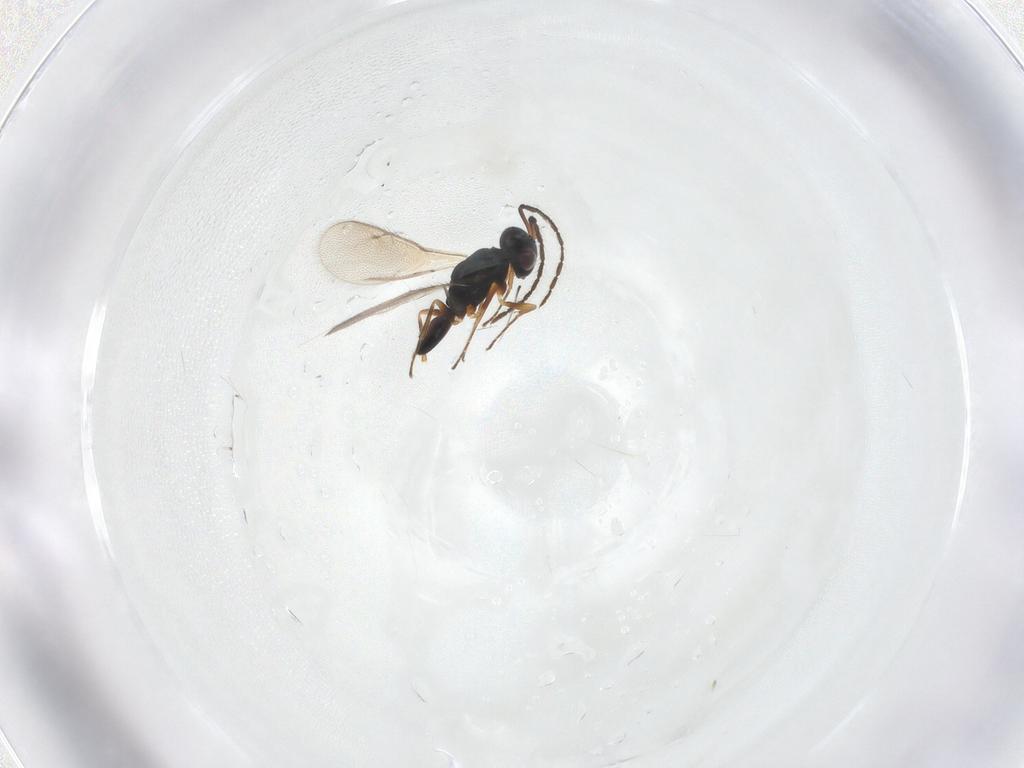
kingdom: Animalia
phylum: Arthropoda
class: Insecta
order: Hymenoptera
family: Pteromalidae
